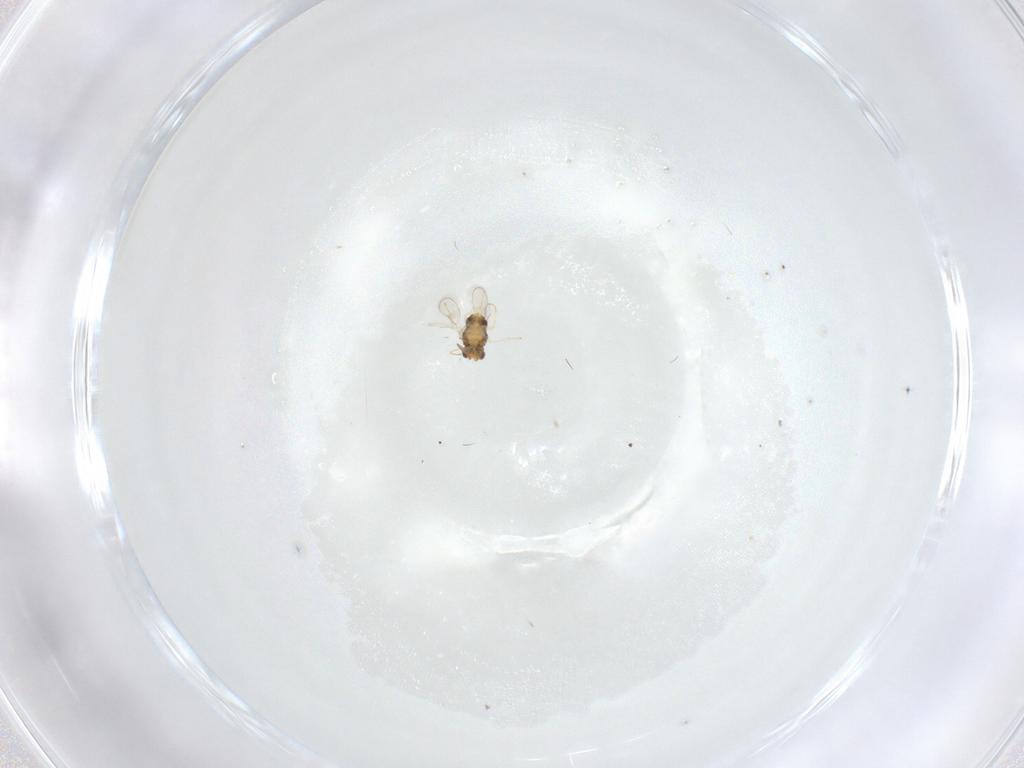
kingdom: Animalia
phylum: Arthropoda
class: Insecta
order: Hymenoptera
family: Aphelinidae
